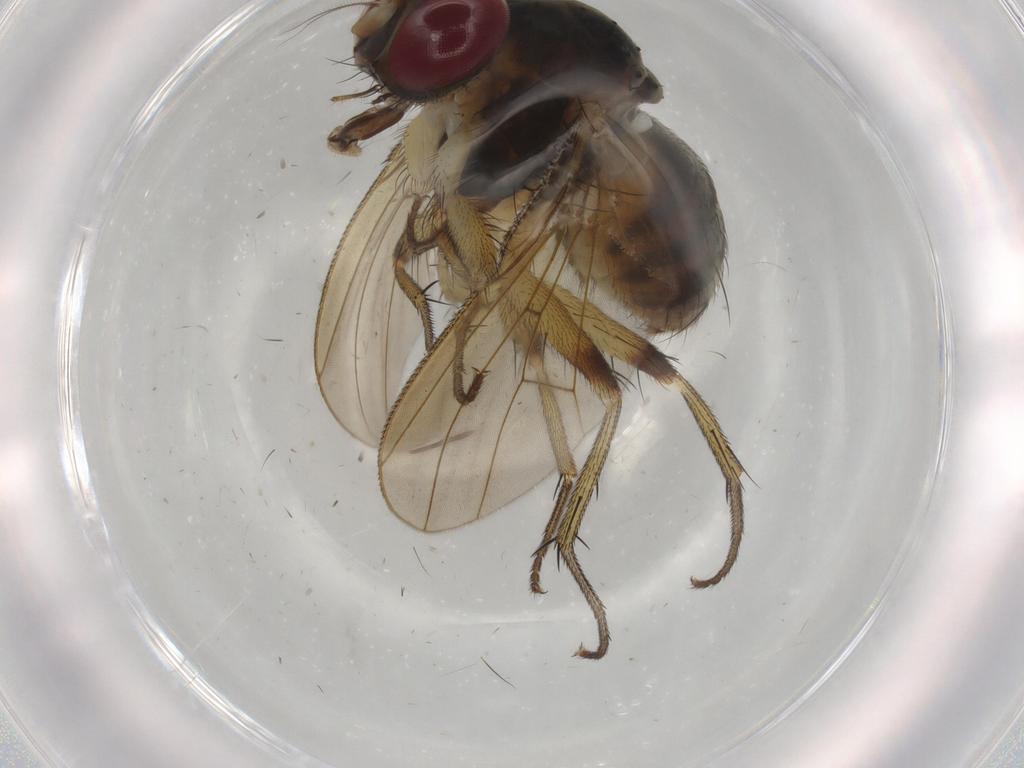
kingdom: Animalia
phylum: Arthropoda
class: Insecta
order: Diptera
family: Muscidae
